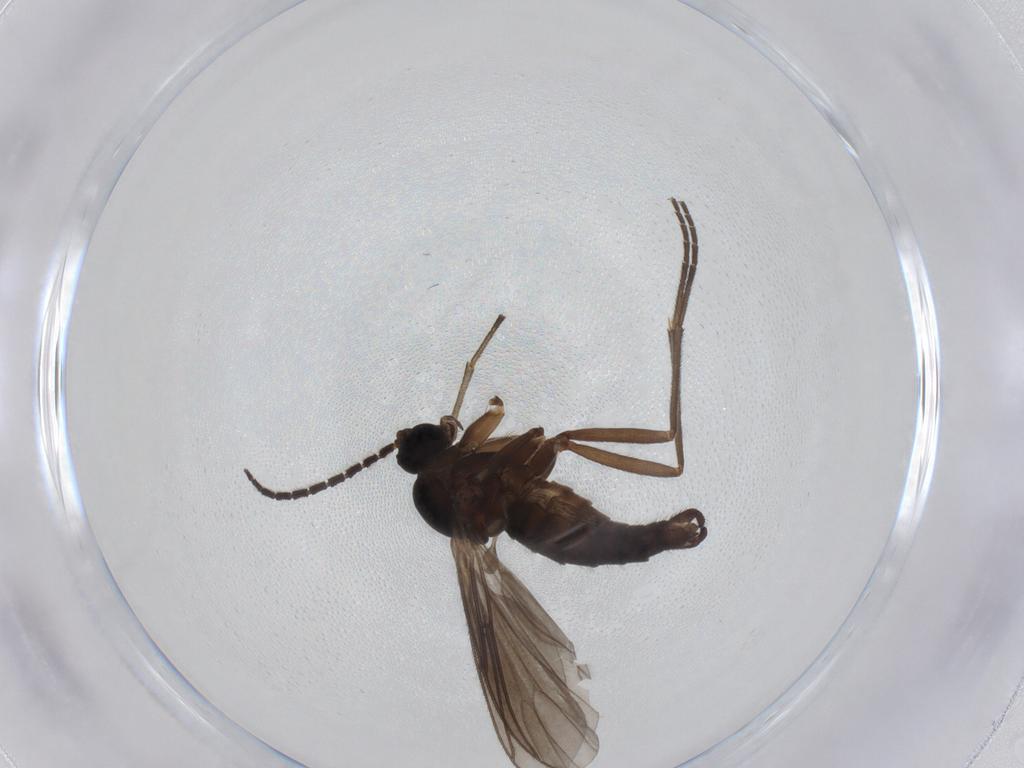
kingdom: Animalia
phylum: Arthropoda
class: Insecta
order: Diptera
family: Sciaridae
